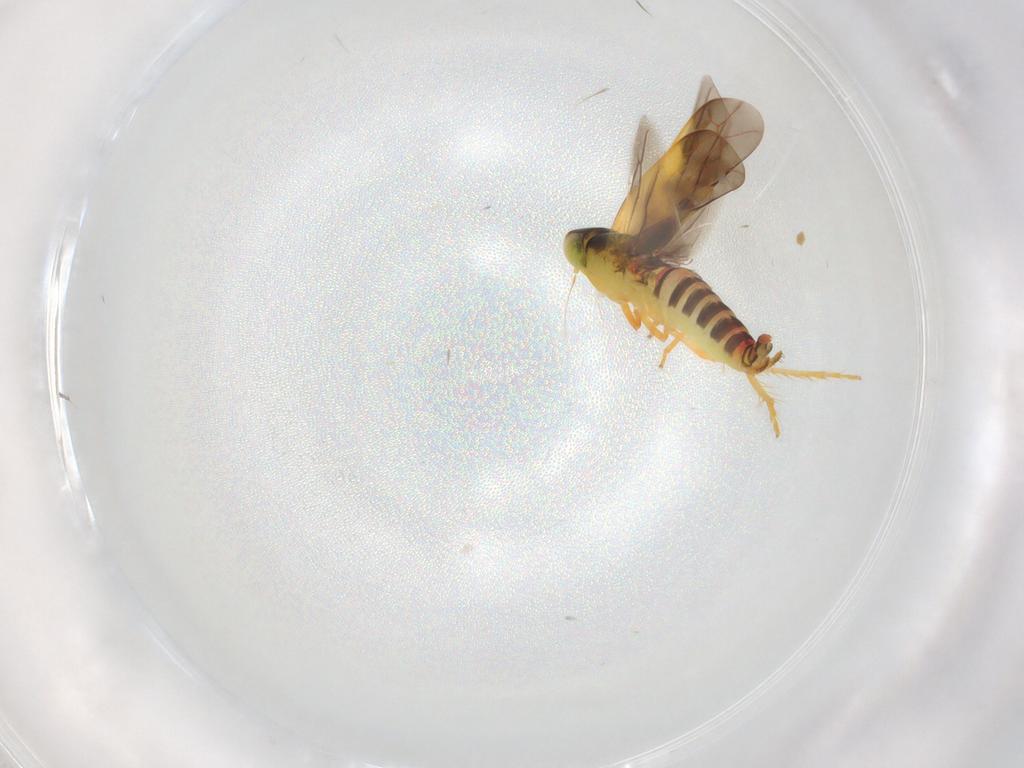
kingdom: Animalia
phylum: Arthropoda
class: Insecta
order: Hemiptera
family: Cicadellidae
